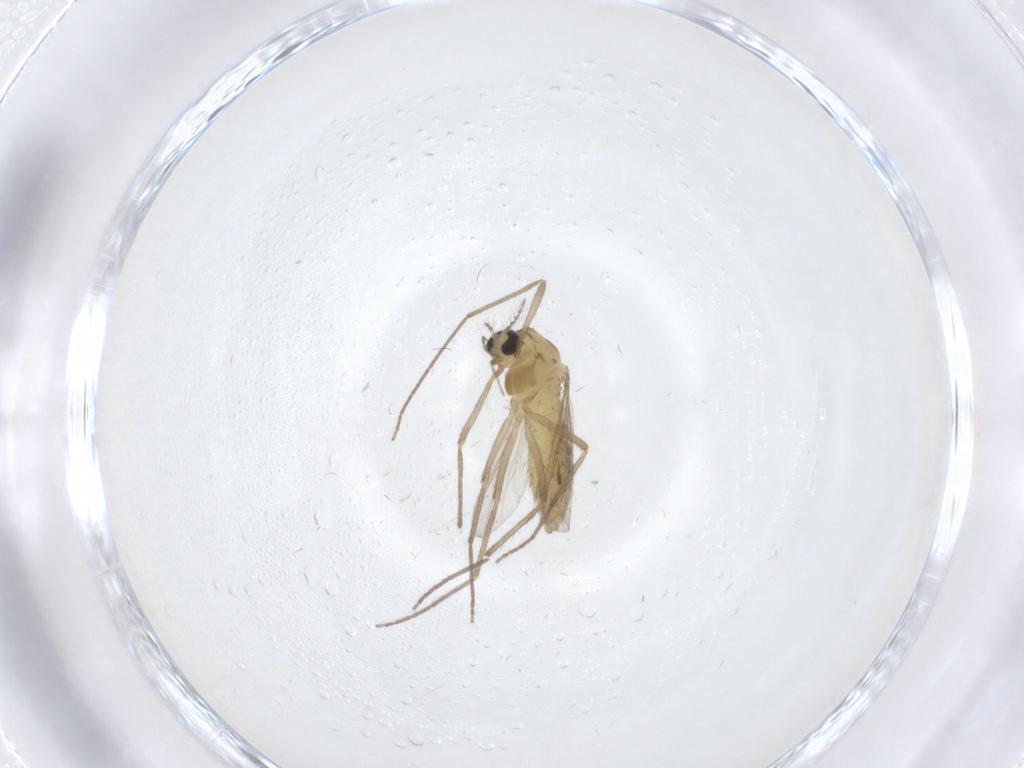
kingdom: Animalia
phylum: Arthropoda
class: Insecta
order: Diptera
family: Chironomidae
